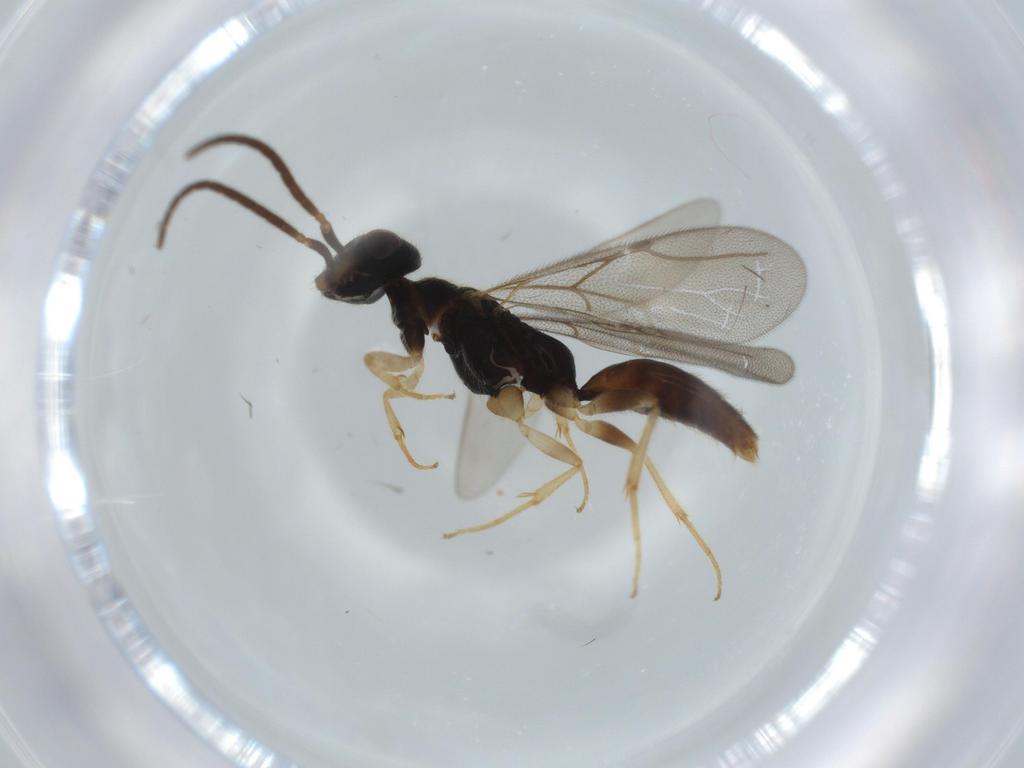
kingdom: Animalia
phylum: Arthropoda
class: Insecta
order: Hymenoptera
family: Bethylidae
